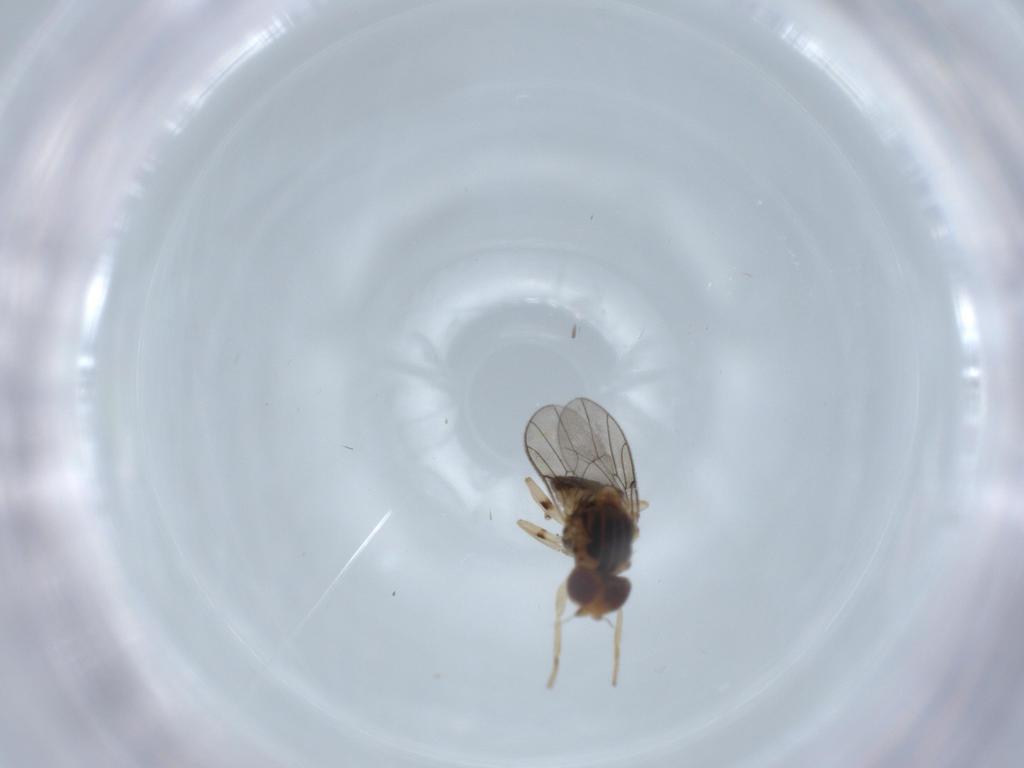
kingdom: Animalia
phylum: Arthropoda
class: Insecta
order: Diptera
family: Chloropidae
